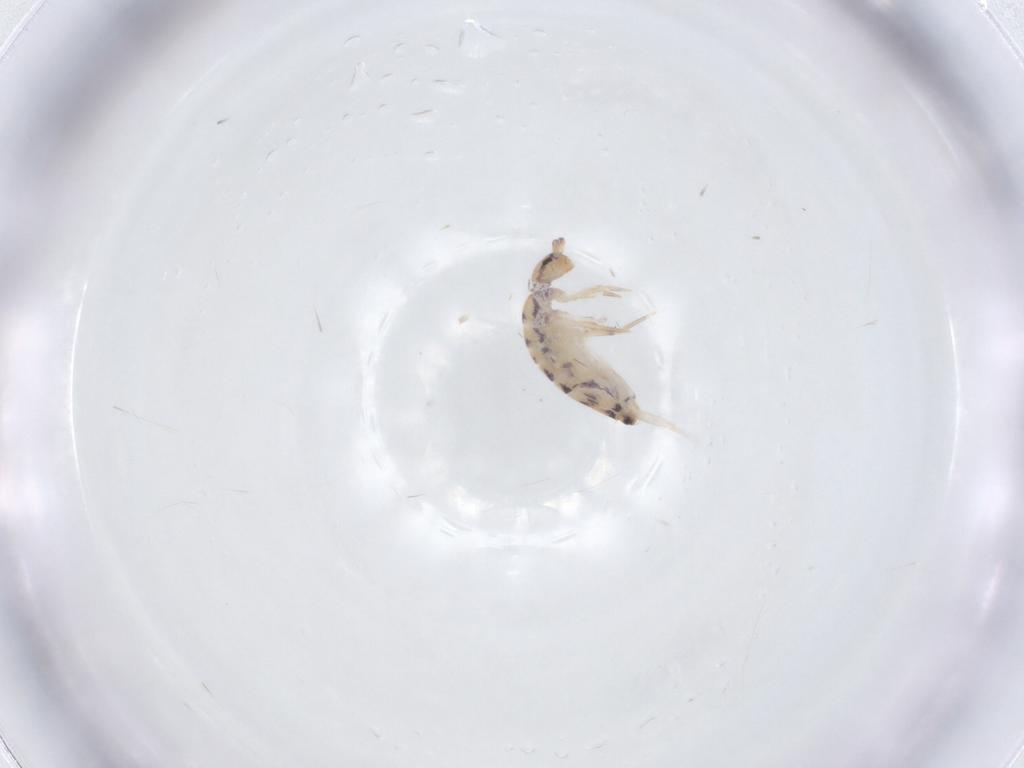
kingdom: Animalia
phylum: Arthropoda
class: Collembola
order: Entomobryomorpha
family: Entomobryidae
